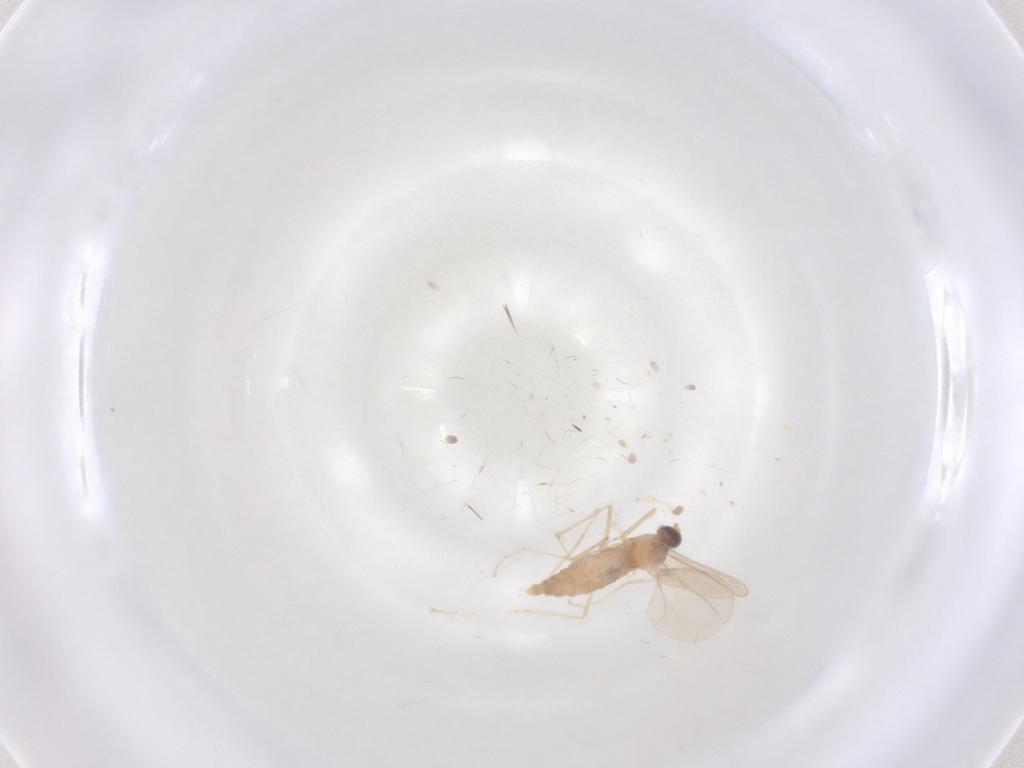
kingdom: Animalia
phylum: Arthropoda
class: Insecta
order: Diptera
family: Cecidomyiidae
